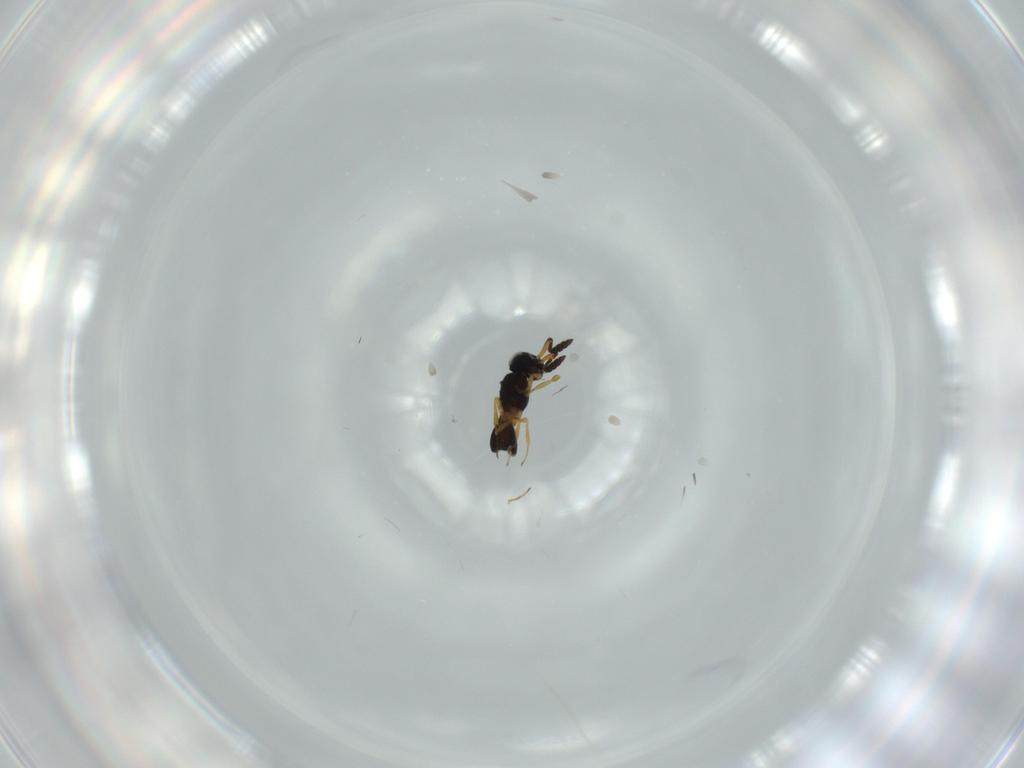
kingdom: Animalia
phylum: Arthropoda
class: Insecta
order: Hymenoptera
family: Scelionidae
